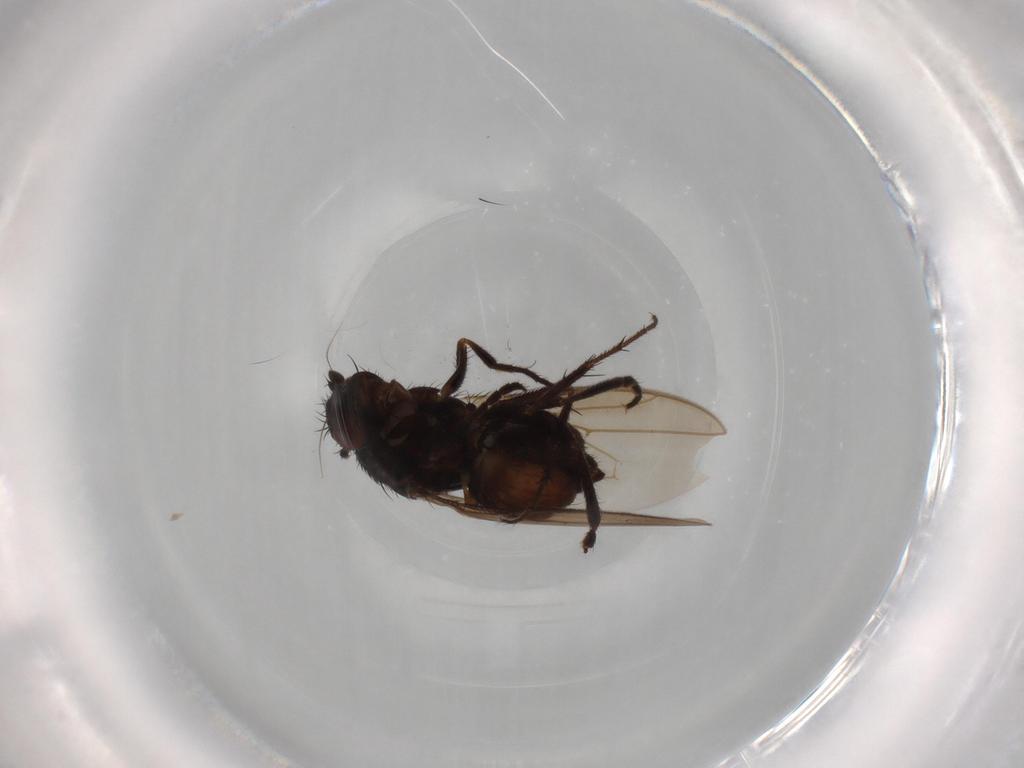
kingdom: Animalia
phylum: Arthropoda
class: Insecta
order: Diptera
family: Sphaeroceridae
